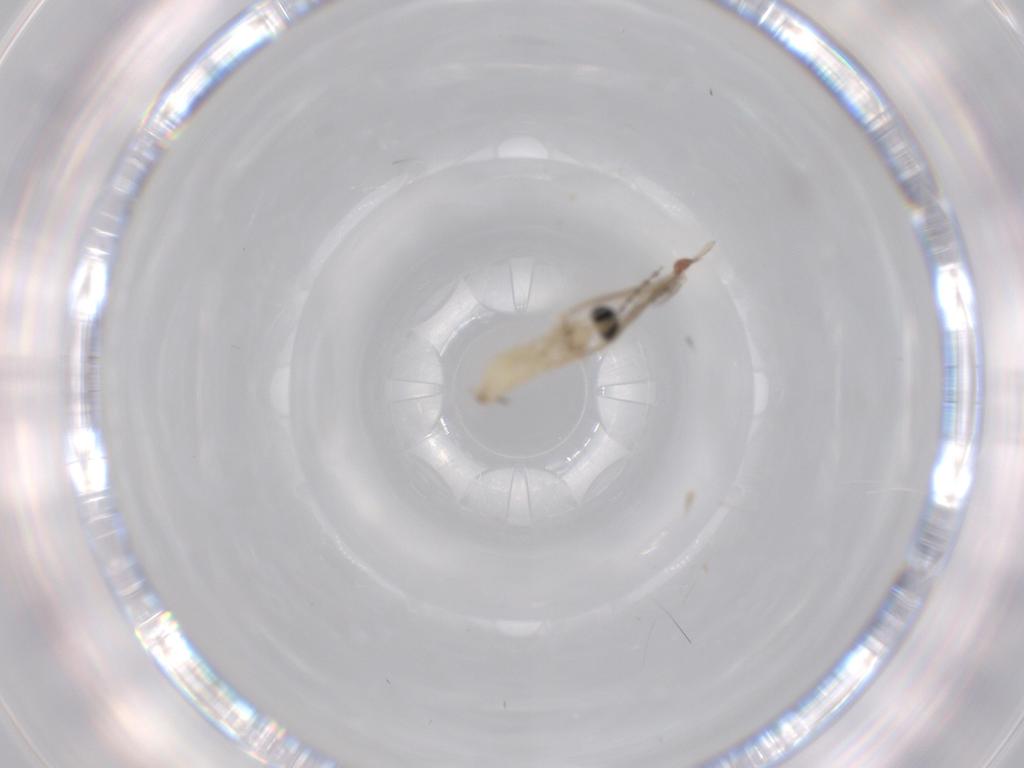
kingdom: Animalia
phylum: Arthropoda
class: Insecta
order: Diptera
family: Cecidomyiidae
